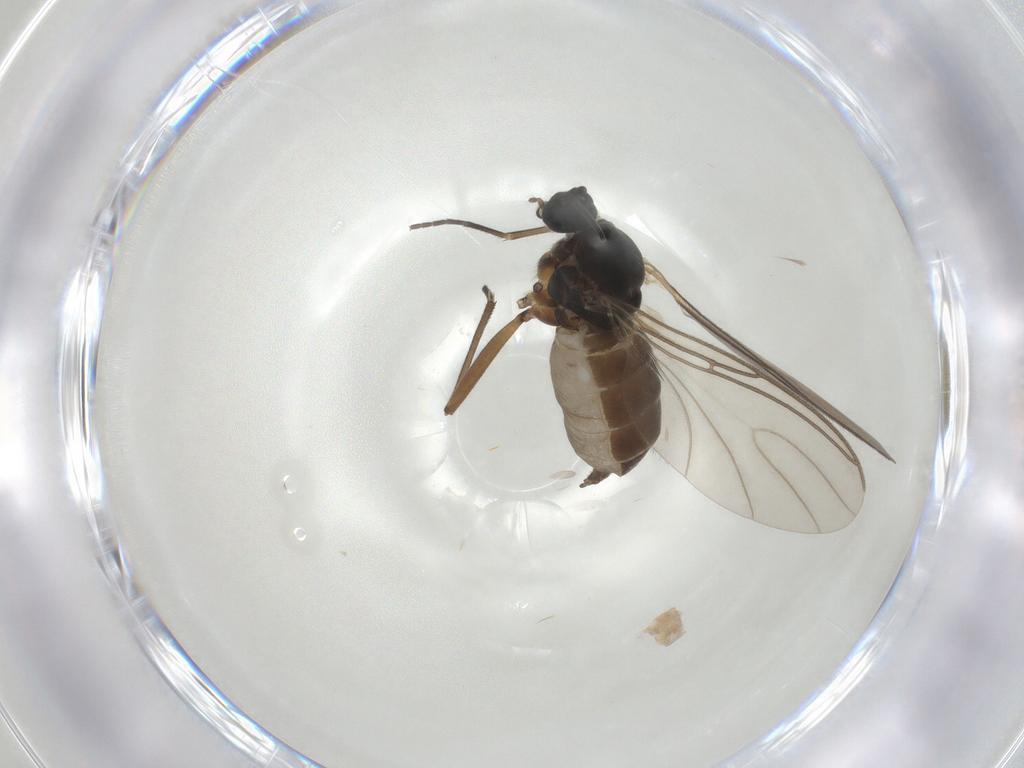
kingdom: Animalia
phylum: Arthropoda
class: Insecta
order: Diptera
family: Sciaridae
